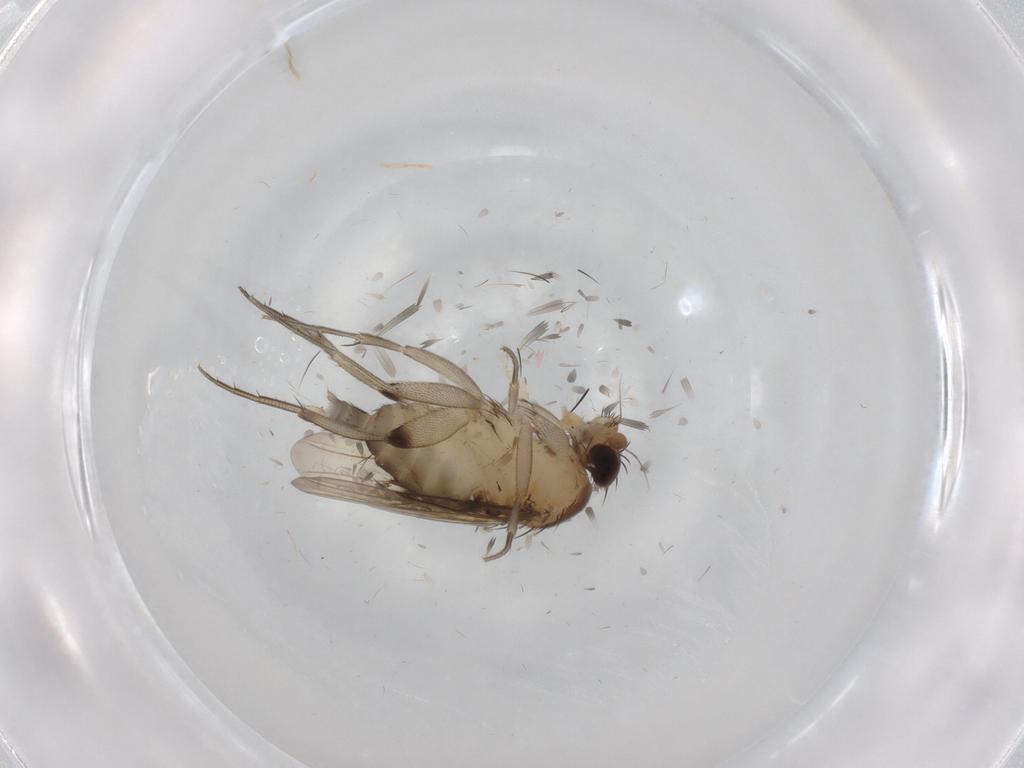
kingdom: Animalia
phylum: Arthropoda
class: Insecta
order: Diptera
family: Phoridae
